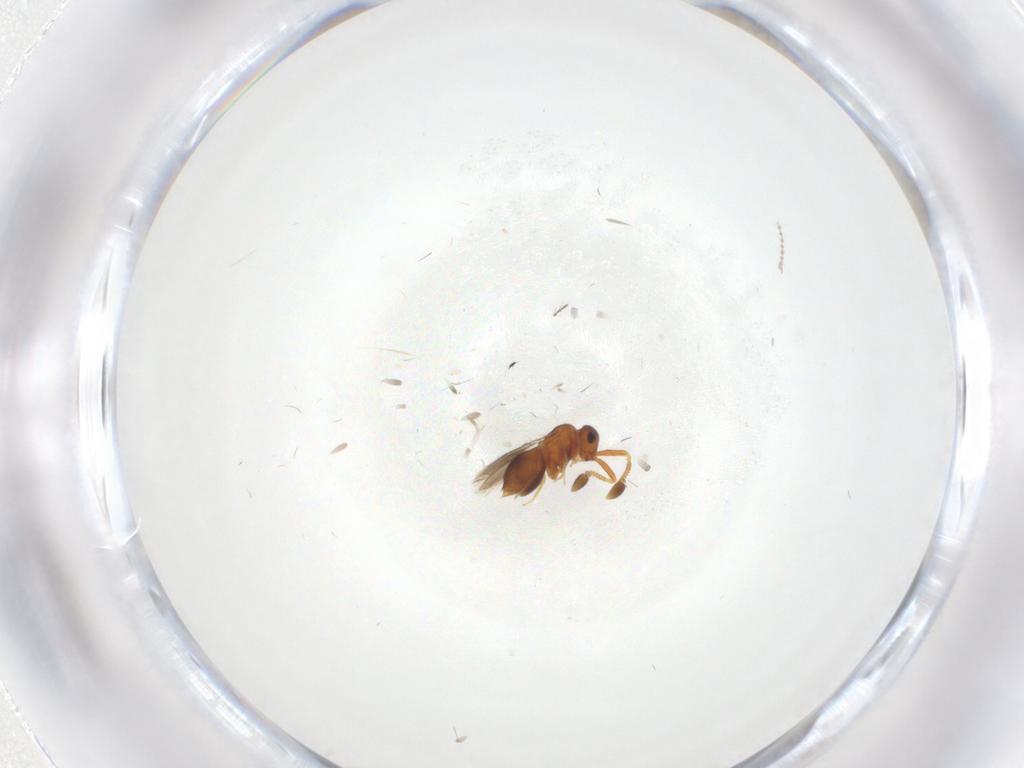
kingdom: Animalia
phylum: Arthropoda
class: Insecta
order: Hymenoptera
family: Ceraphronidae
